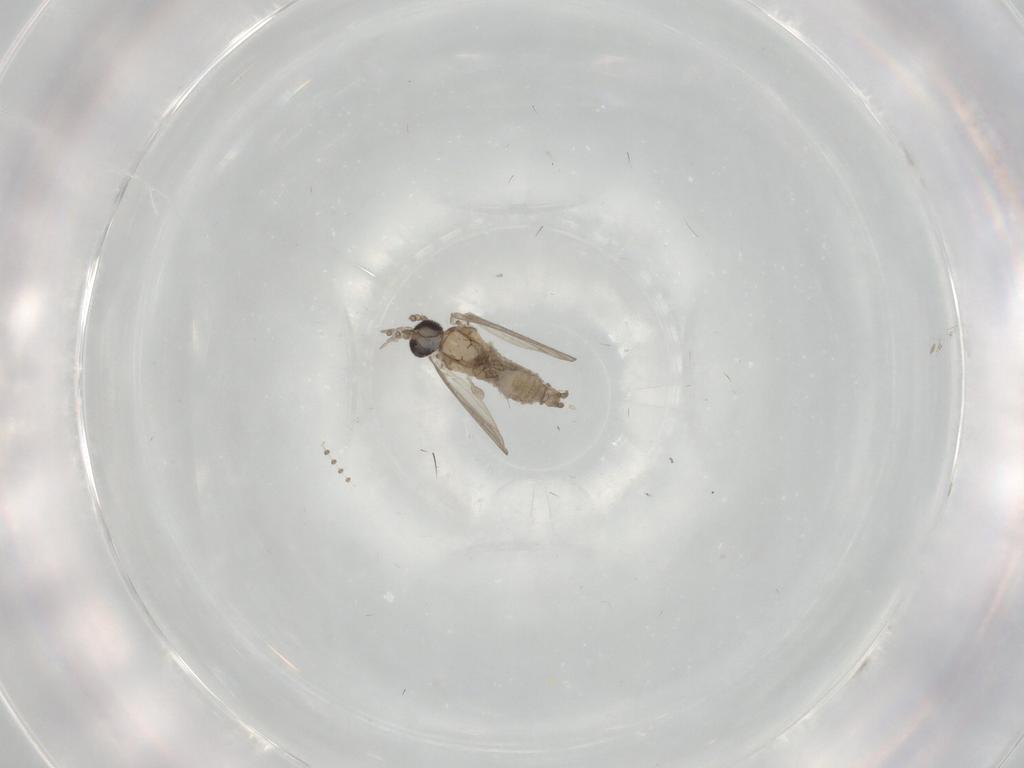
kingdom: Animalia
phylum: Arthropoda
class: Insecta
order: Diptera
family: Psychodidae
